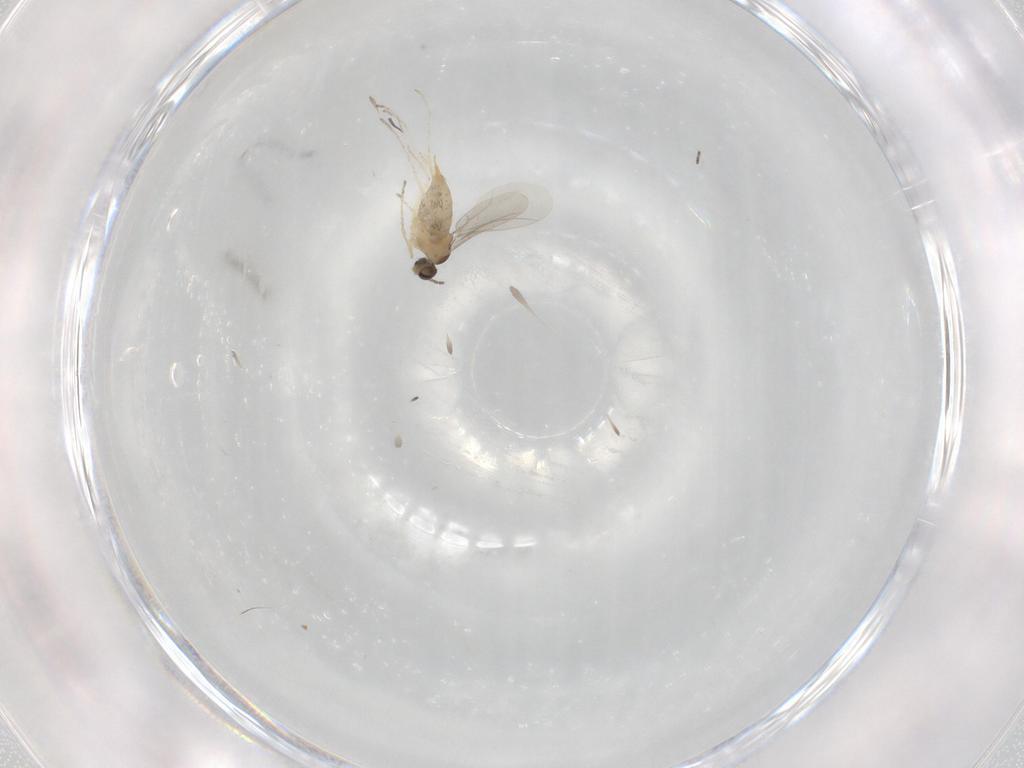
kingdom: Animalia
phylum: Arthropoda
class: Insecta
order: Diptera
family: Cecidomyiidae
